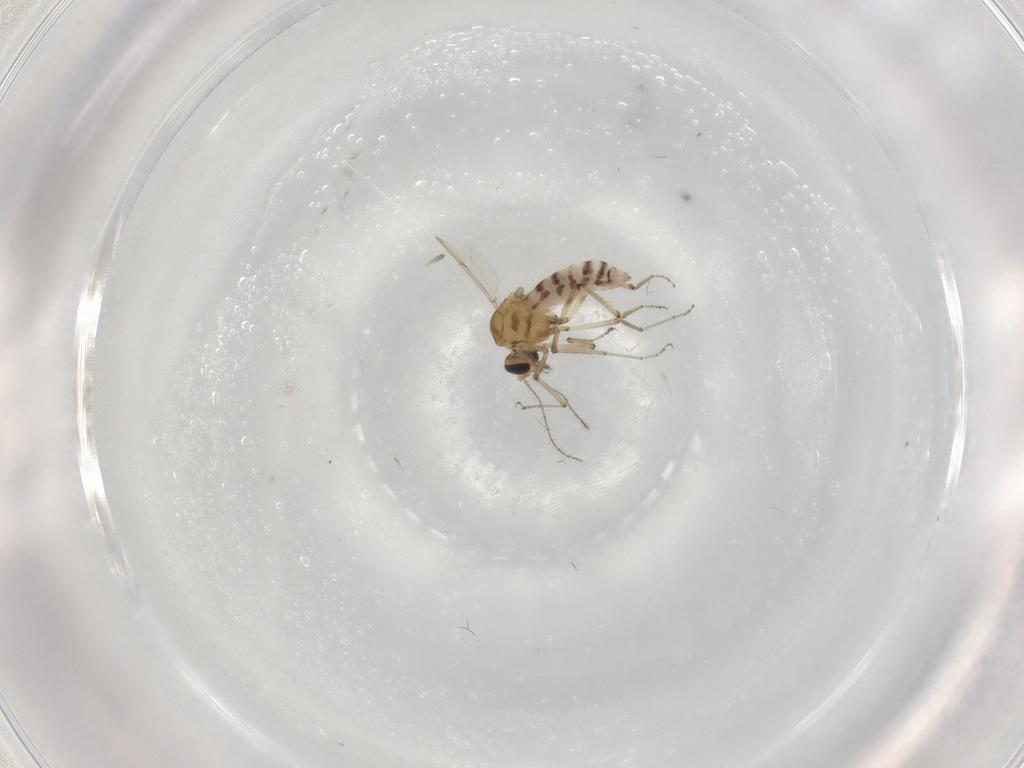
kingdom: Animalia
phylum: Arthropoda
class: Insecta
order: Diptera
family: Ceratopogonidae
